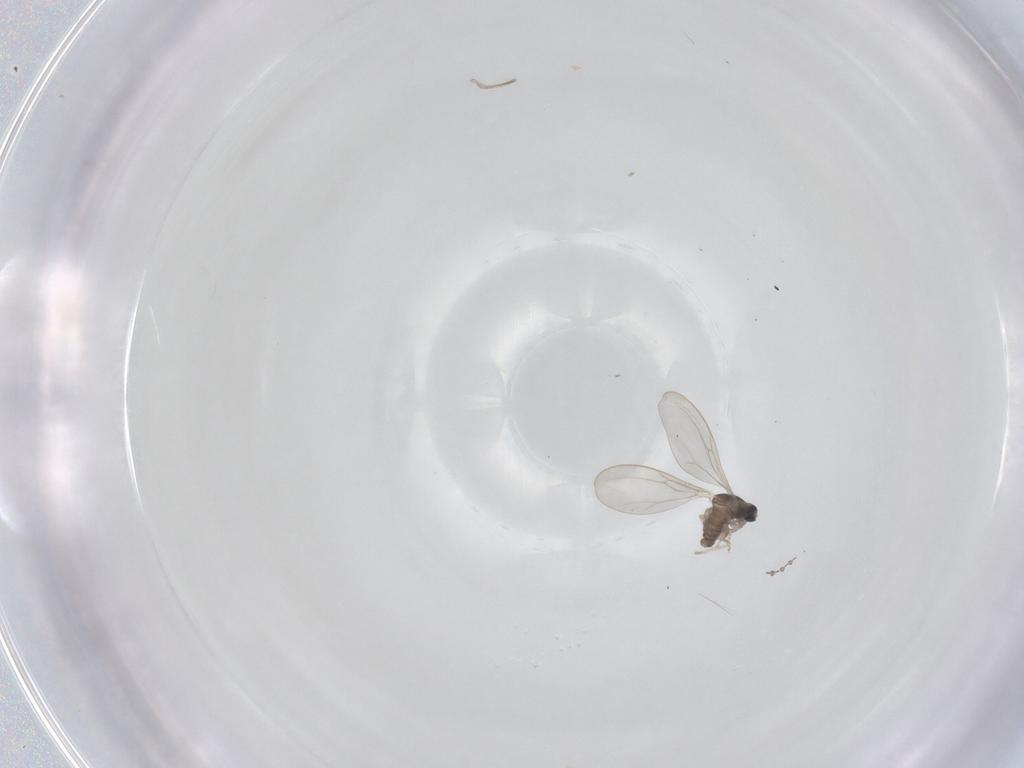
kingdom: Animalia
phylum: Arthropoda
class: Insecta
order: Diptera
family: Cecidomyiidae
